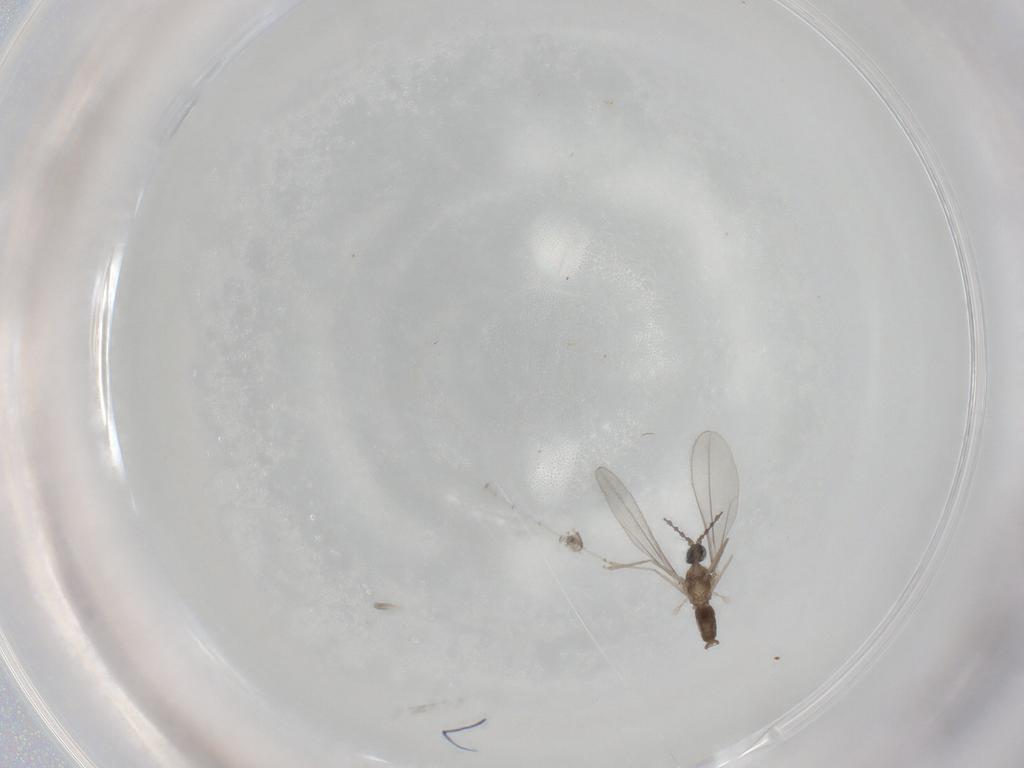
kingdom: Animalia
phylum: Arthropoda
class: Insecta
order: Diptera
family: Cecidomyiidae
